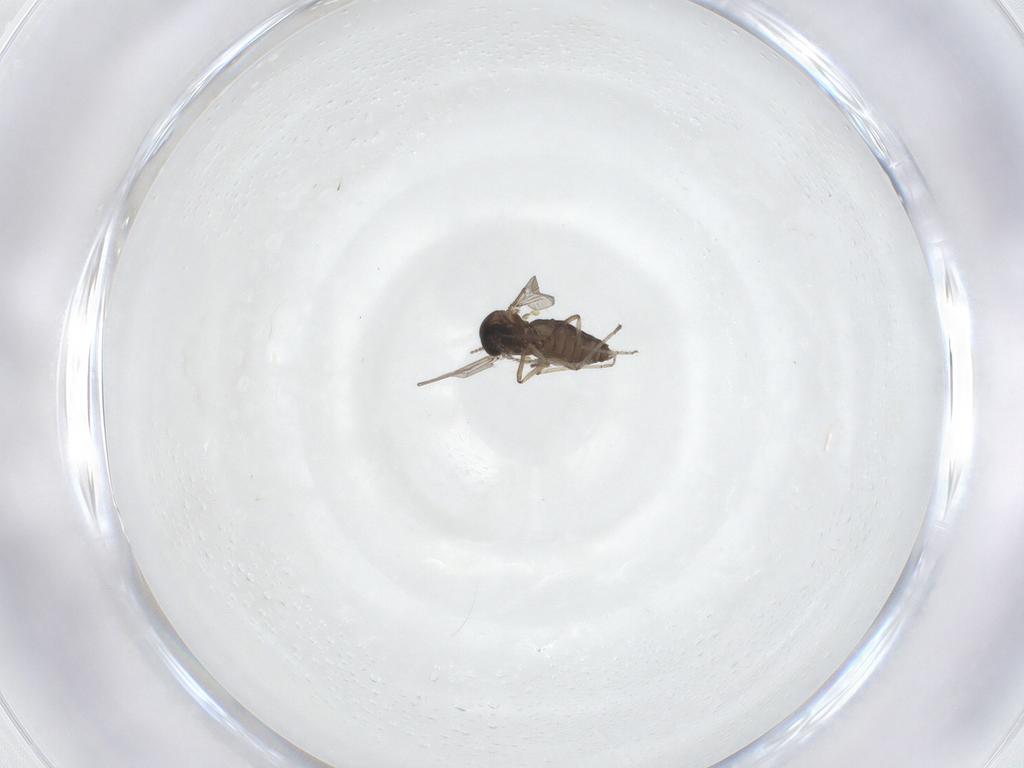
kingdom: Animalia
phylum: Arthropoda
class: Insecta
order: Diptera
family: Ceratopogonidae
